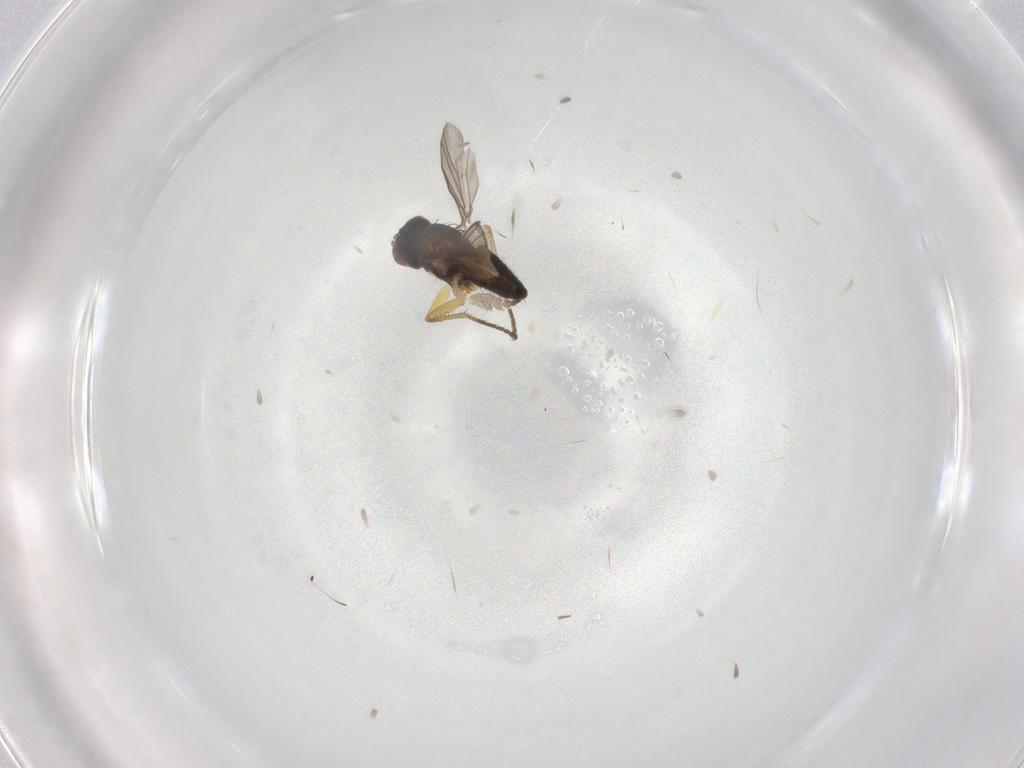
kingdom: Animalia
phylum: Arthropoda
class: Insecta
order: Diptera
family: Dolichopodidae
